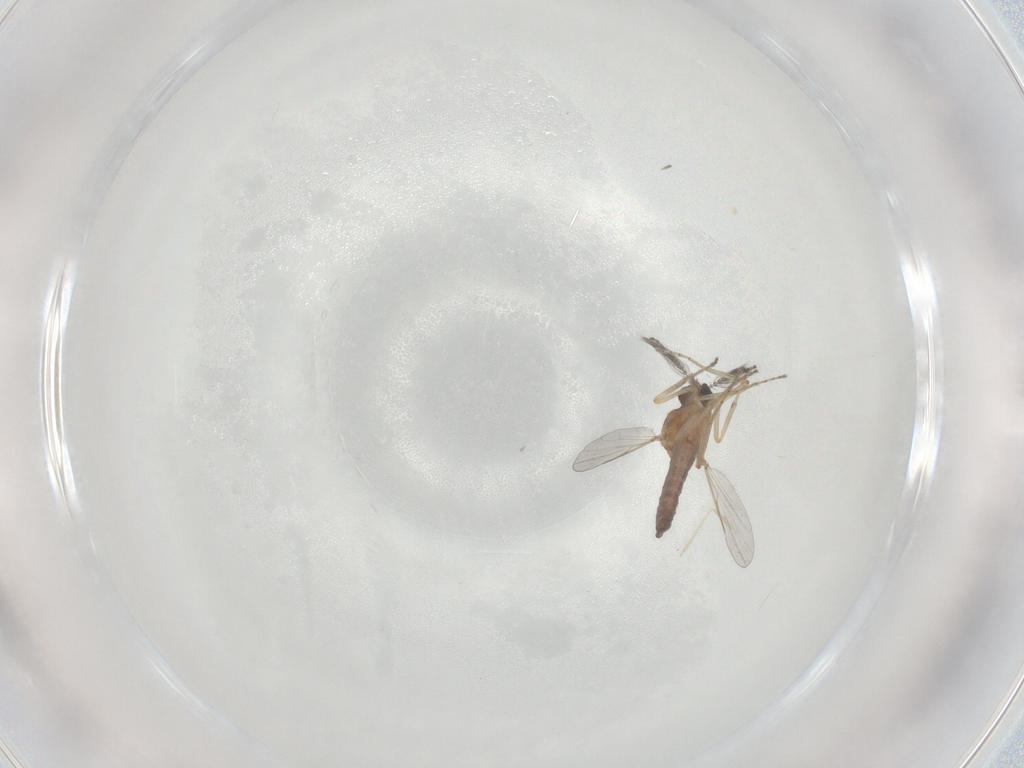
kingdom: Animalia
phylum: Arthropoda
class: Insecta
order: Diptera
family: Ceratopogonidae
